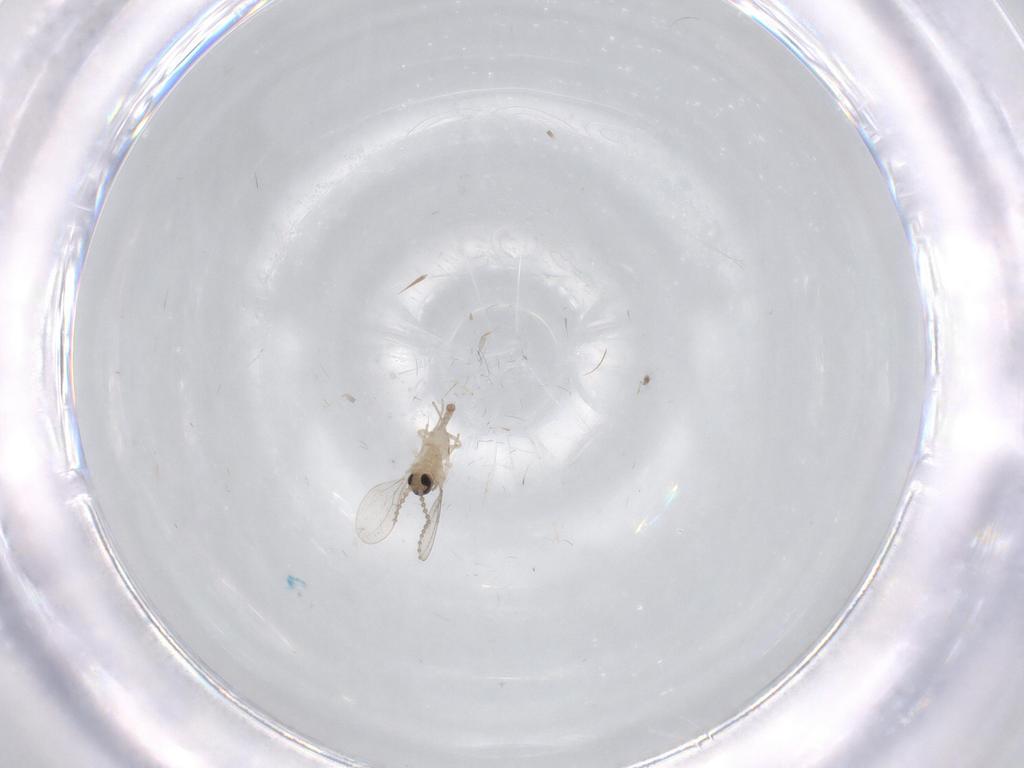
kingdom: Animalia
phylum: Arthropoda
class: Insecta
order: Diptera
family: Cecidomyiidae
